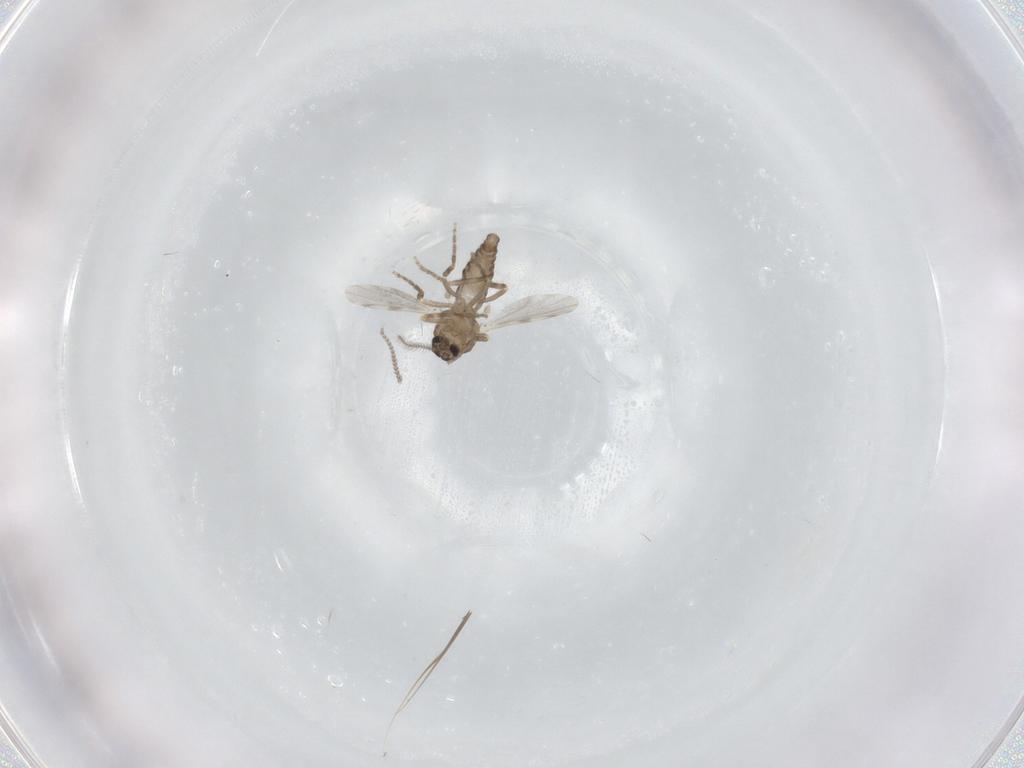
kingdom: Animalia
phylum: Arthropoda
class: Insecta
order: Diptera
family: Ceratopogonidae
